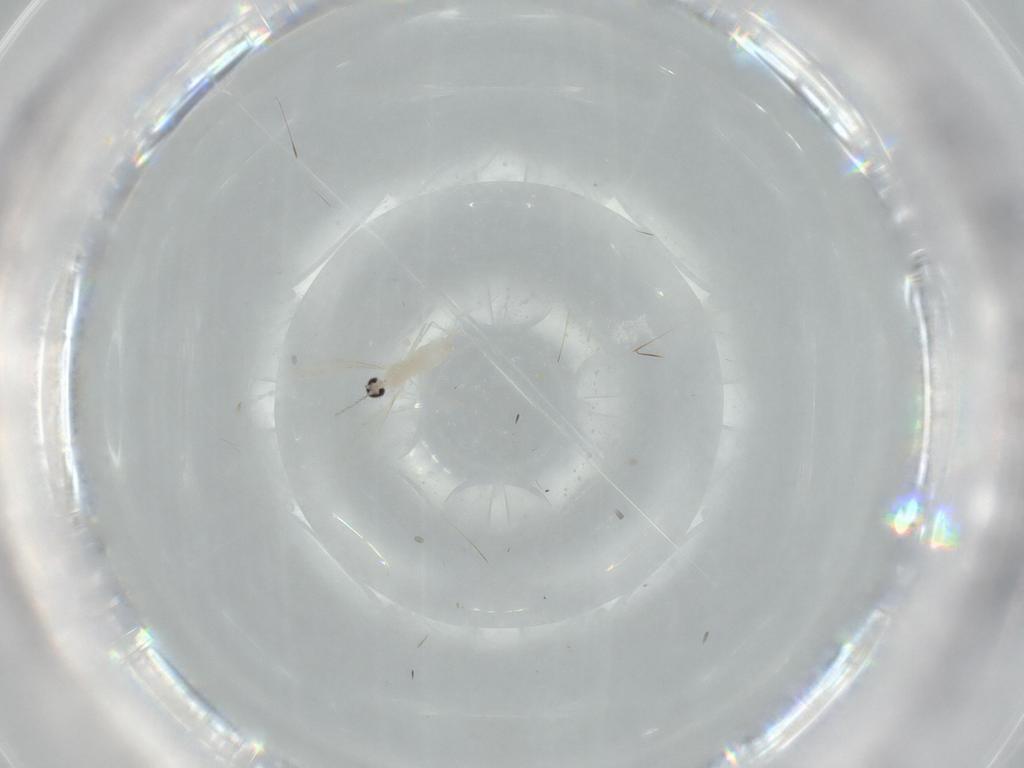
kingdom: Animalia
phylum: Arthropoda
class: Insecta
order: Diptera
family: Cecidomyiidae
